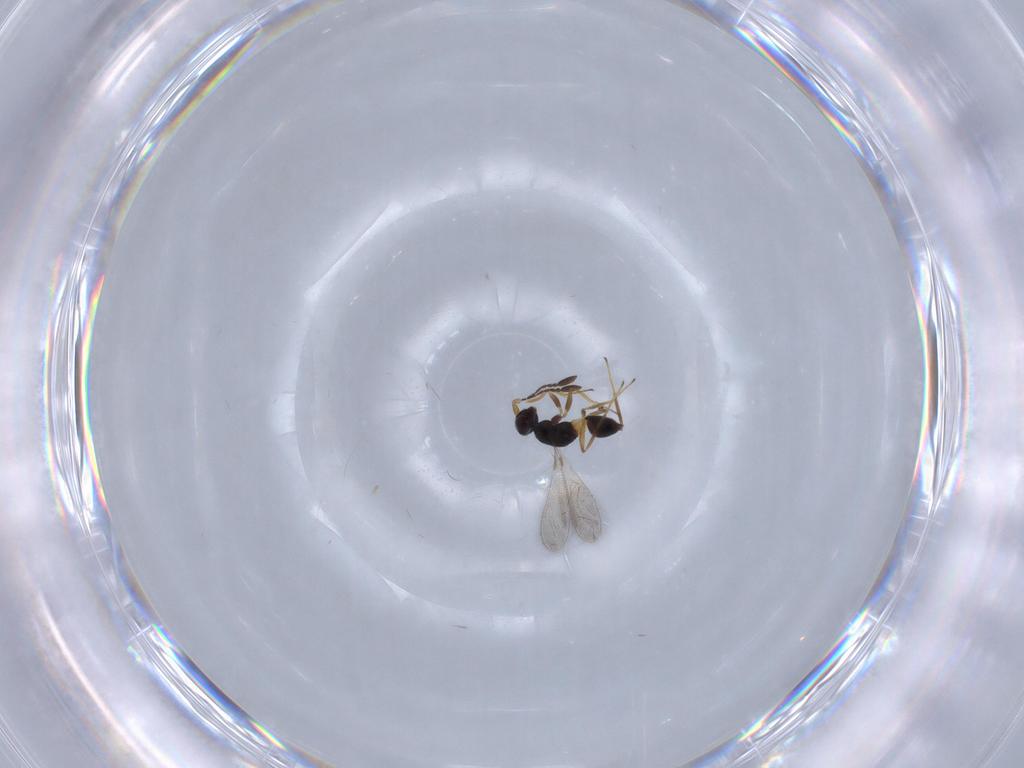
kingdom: Animalia
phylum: Arthropoda
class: Insecta
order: Hymenoptera
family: Mymaridae
